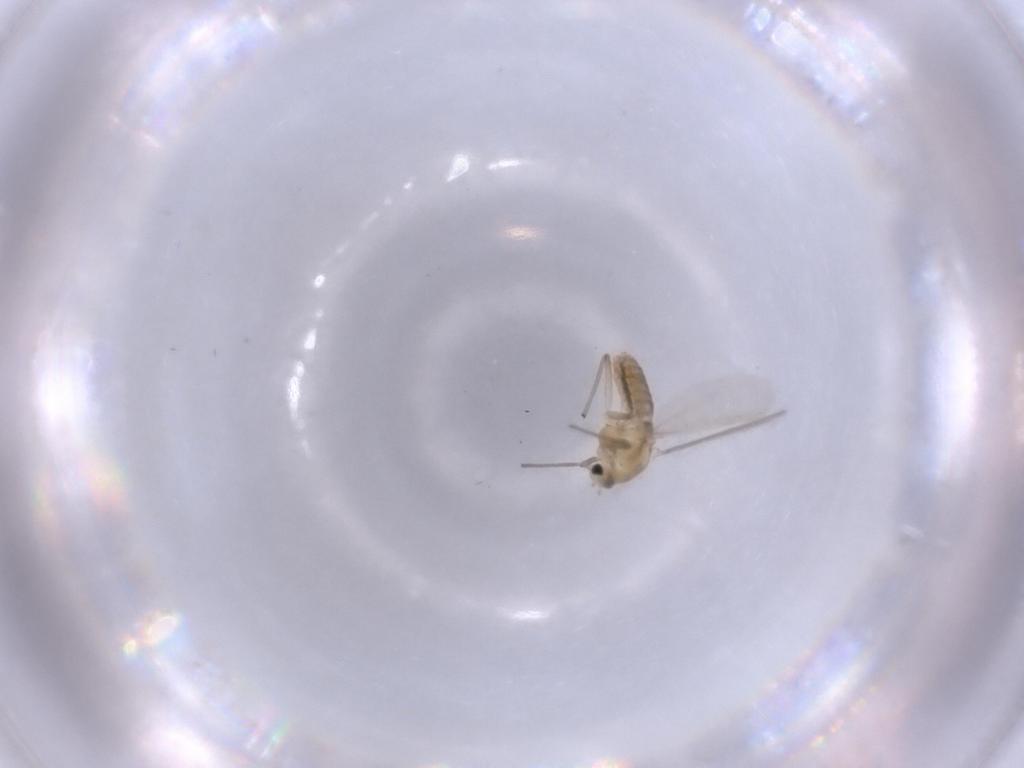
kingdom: Animalia
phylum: Arthropoda
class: Insecta
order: Diptera
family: Chironomidae
